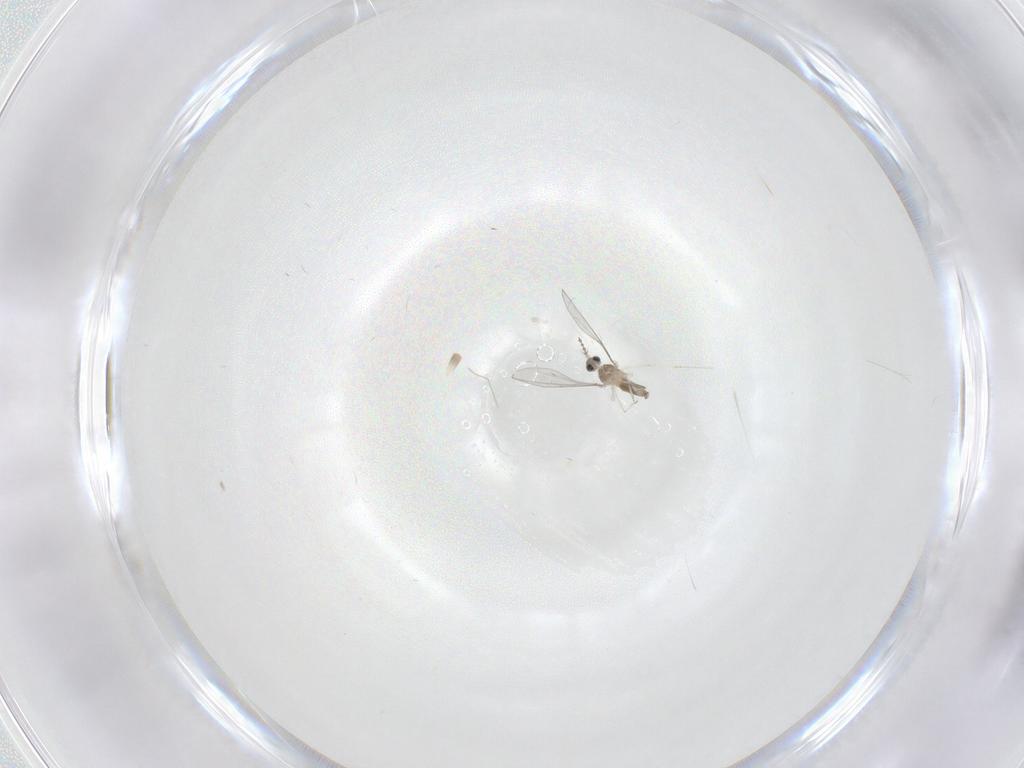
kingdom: Animalia
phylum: Arthropoda
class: Insecta
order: Diptera
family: Cecidomyiidae
